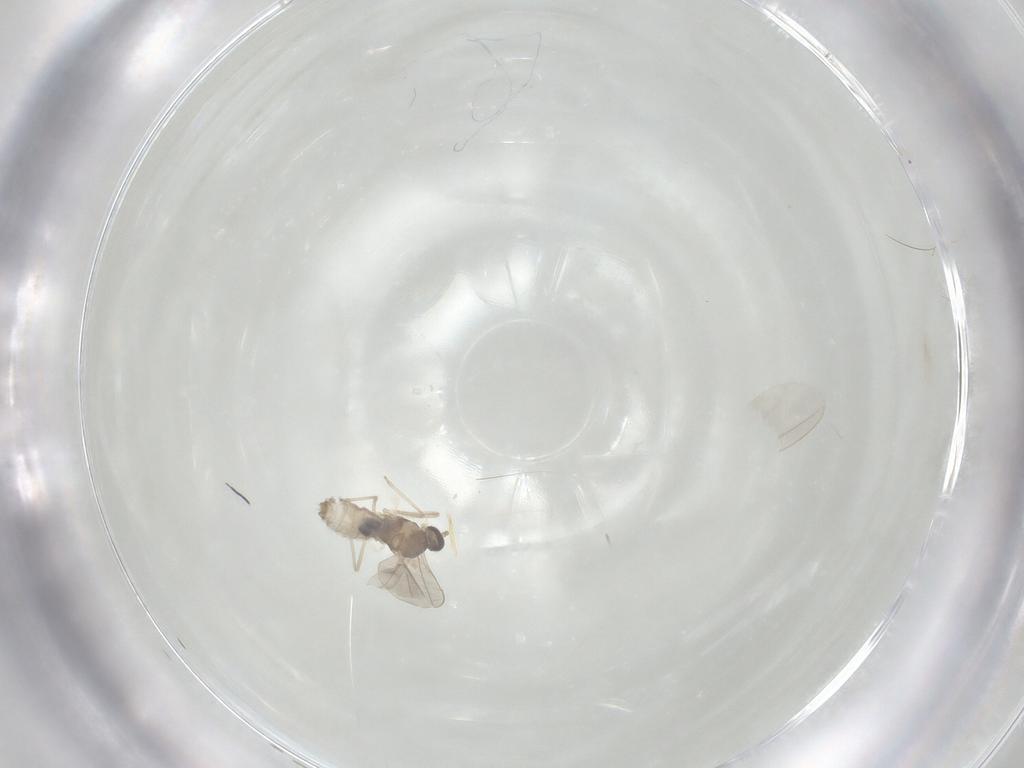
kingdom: Animalia
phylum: Arthropoda
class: Insecta
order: Diptera
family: Cecidomyiidae
